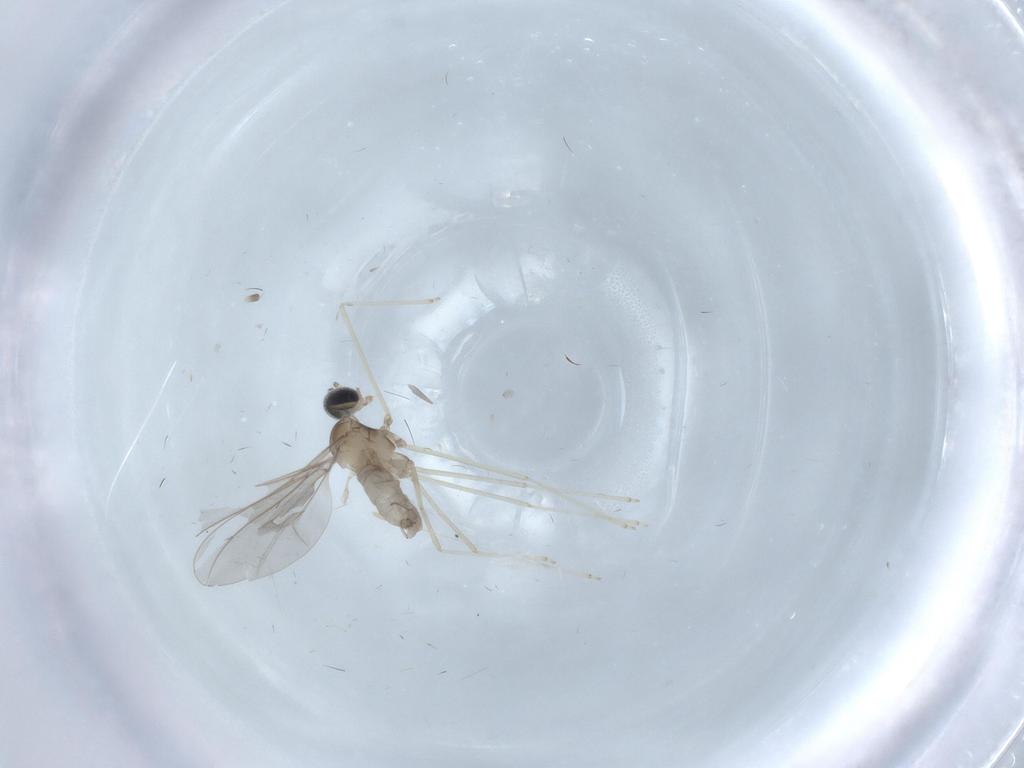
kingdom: Animalia
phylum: Arthropoda
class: Insecta
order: Diptera
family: Cecidomyiidae
